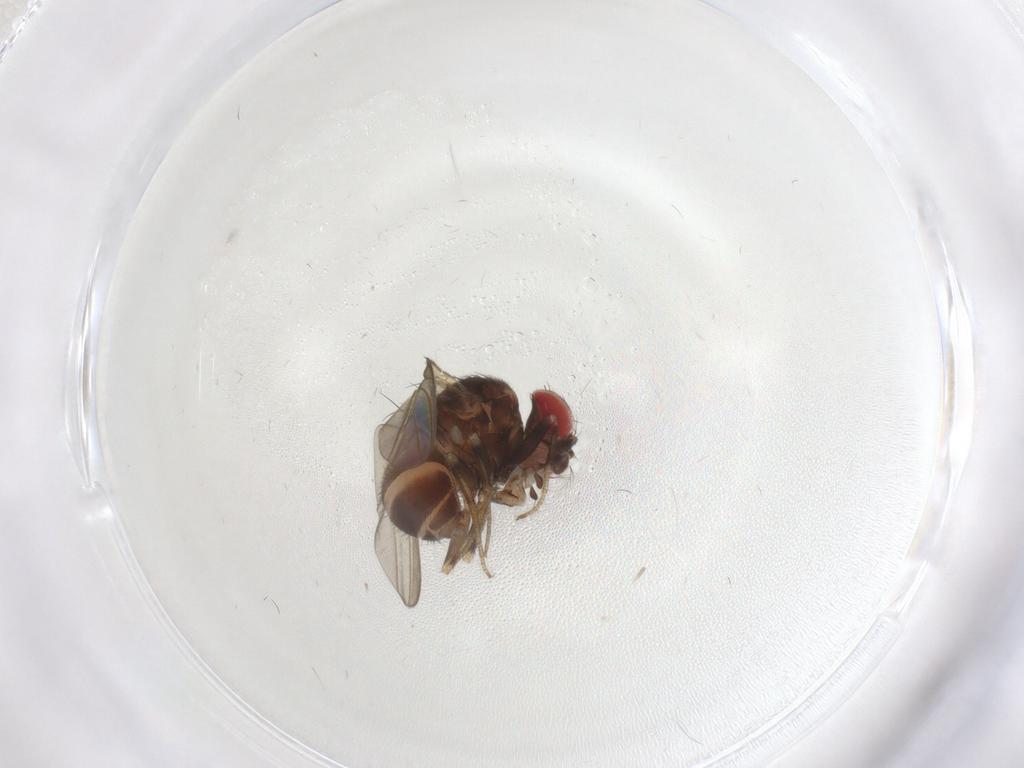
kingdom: Animalia
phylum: Arthropoda
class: Insecta
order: Diptera
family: Drosophilidae
